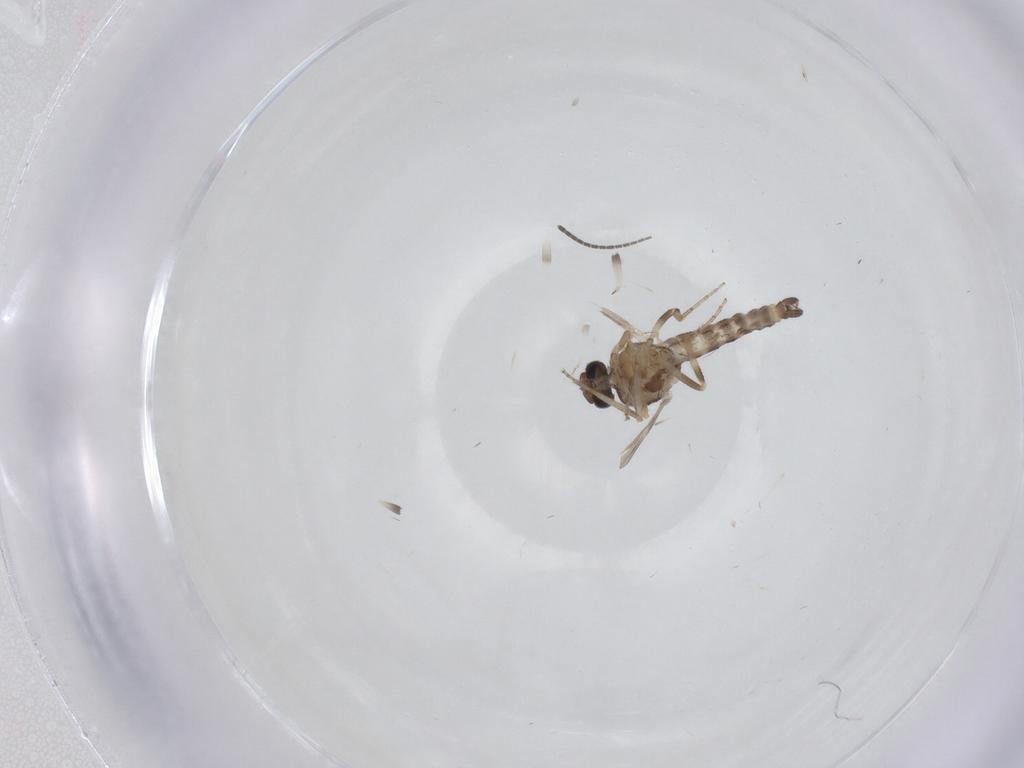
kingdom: Animalia
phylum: Arthropoda
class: Insecta
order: Diptera
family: Ceratopogonidae
